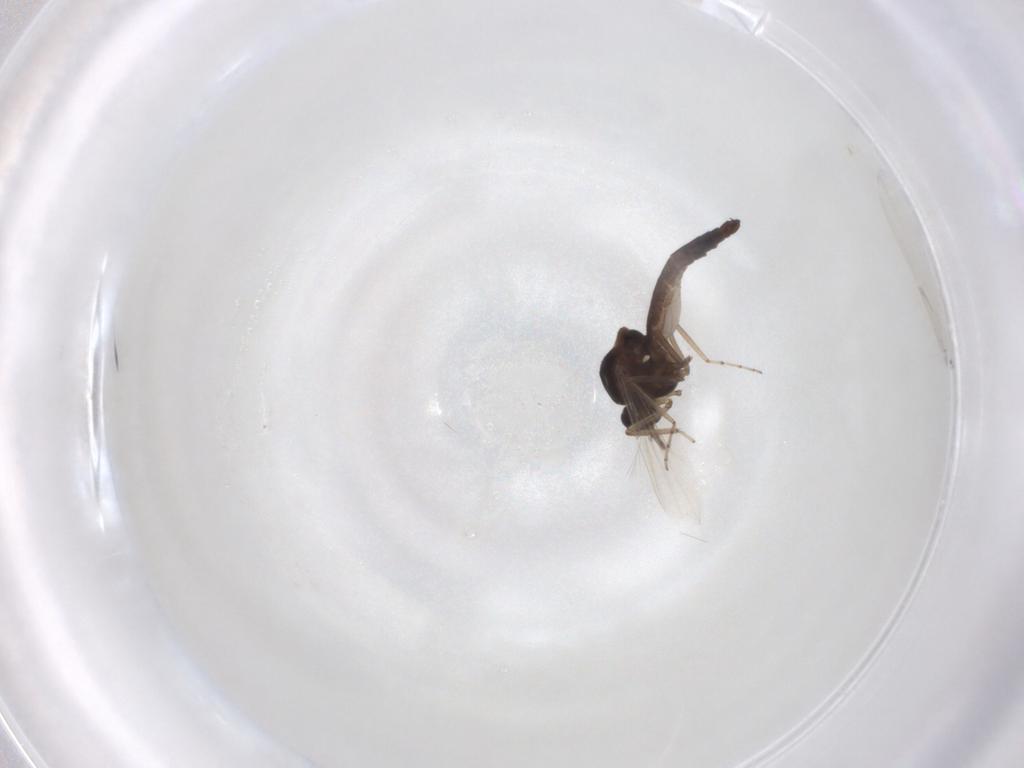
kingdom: Animalia
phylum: Arthropoda
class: Insecta
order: Diptera
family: Ceratopogonidae
